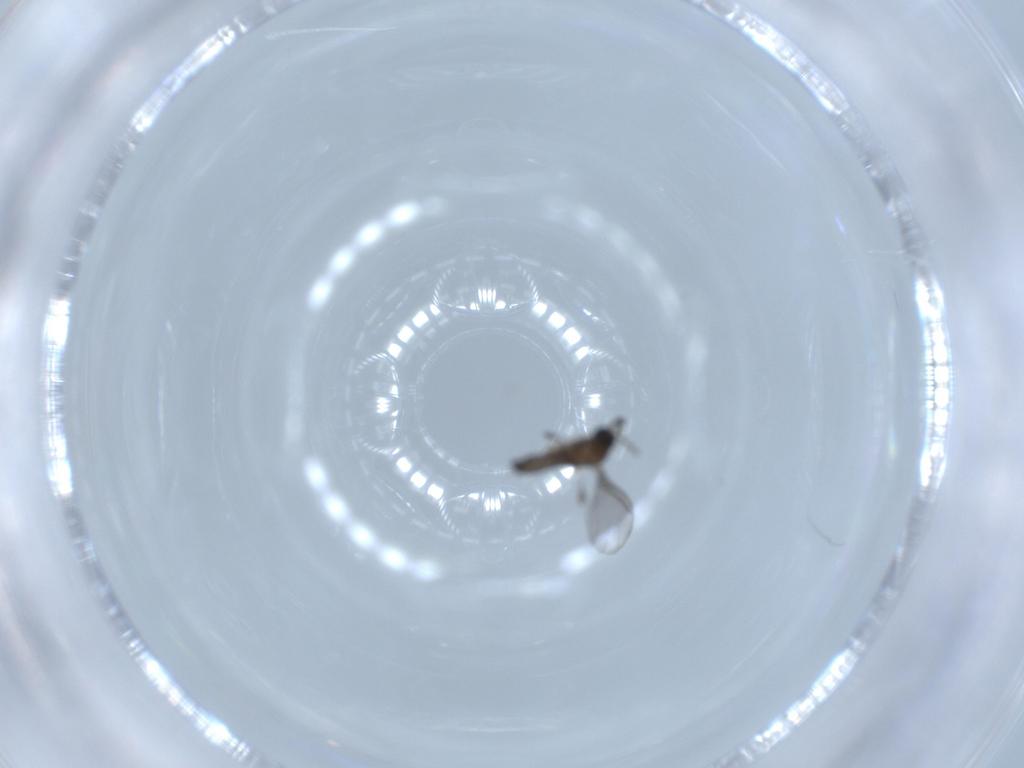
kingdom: Animalia
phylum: Arthropoda
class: Insecta
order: Diptera
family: Sciaridae
